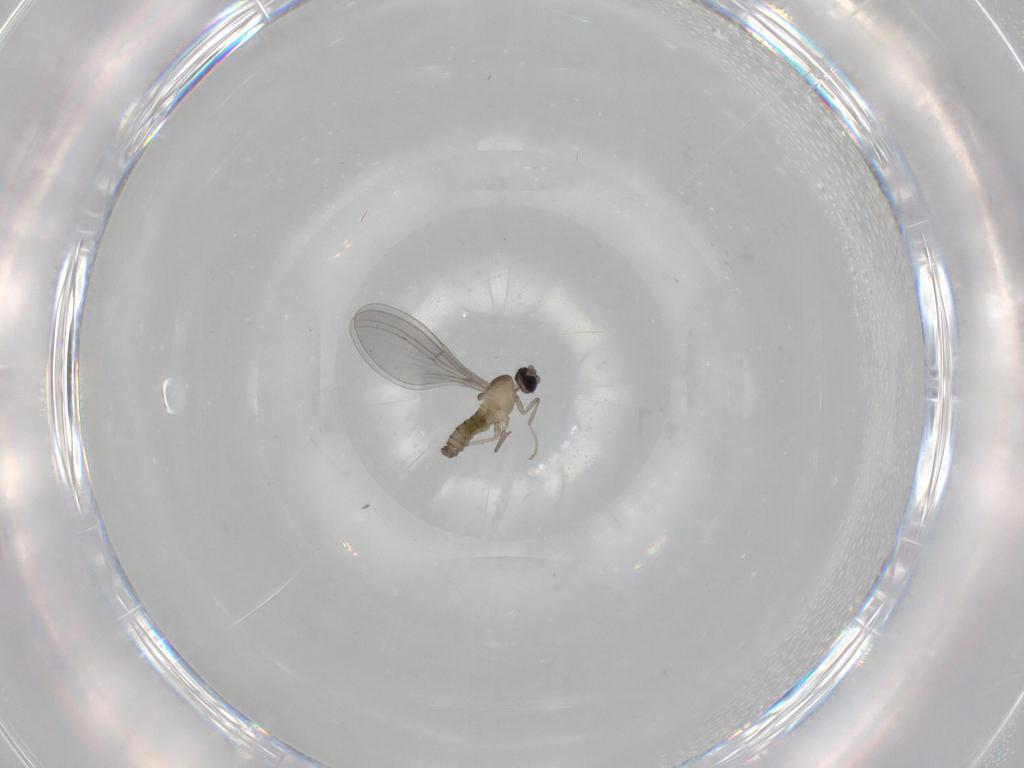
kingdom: Animalia
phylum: Arthropoda
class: Insecta
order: Diptera
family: Cecidomyiidae
